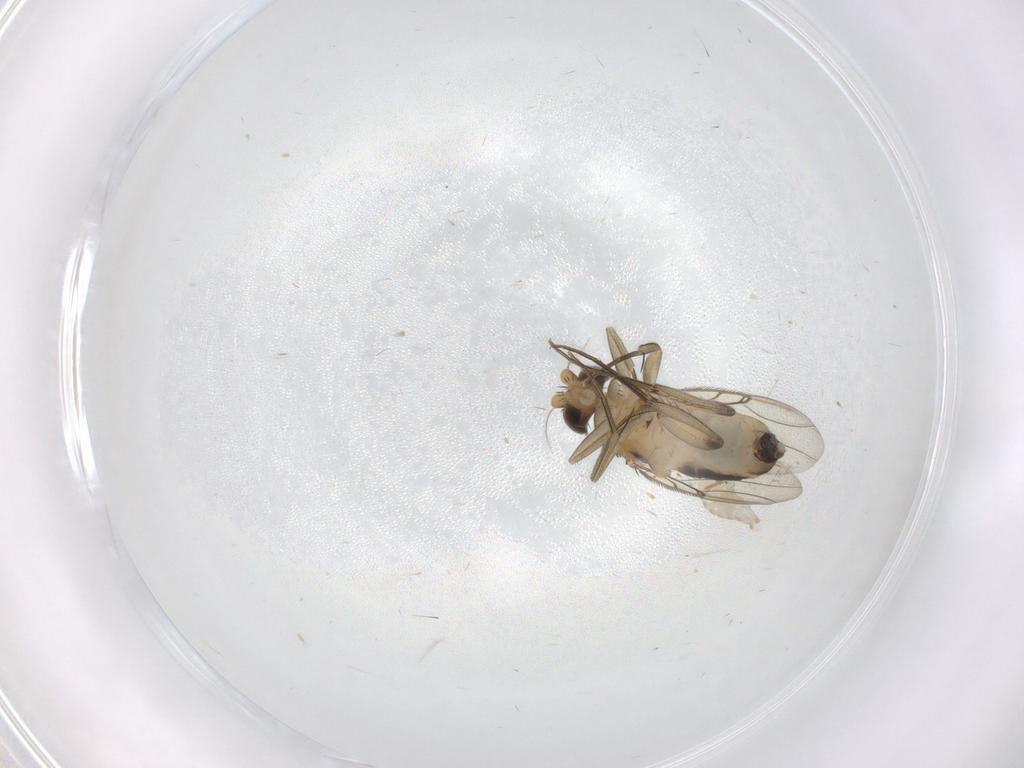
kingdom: Animalia
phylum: Arthropoda
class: Insecta
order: Diptera
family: Phoridae
